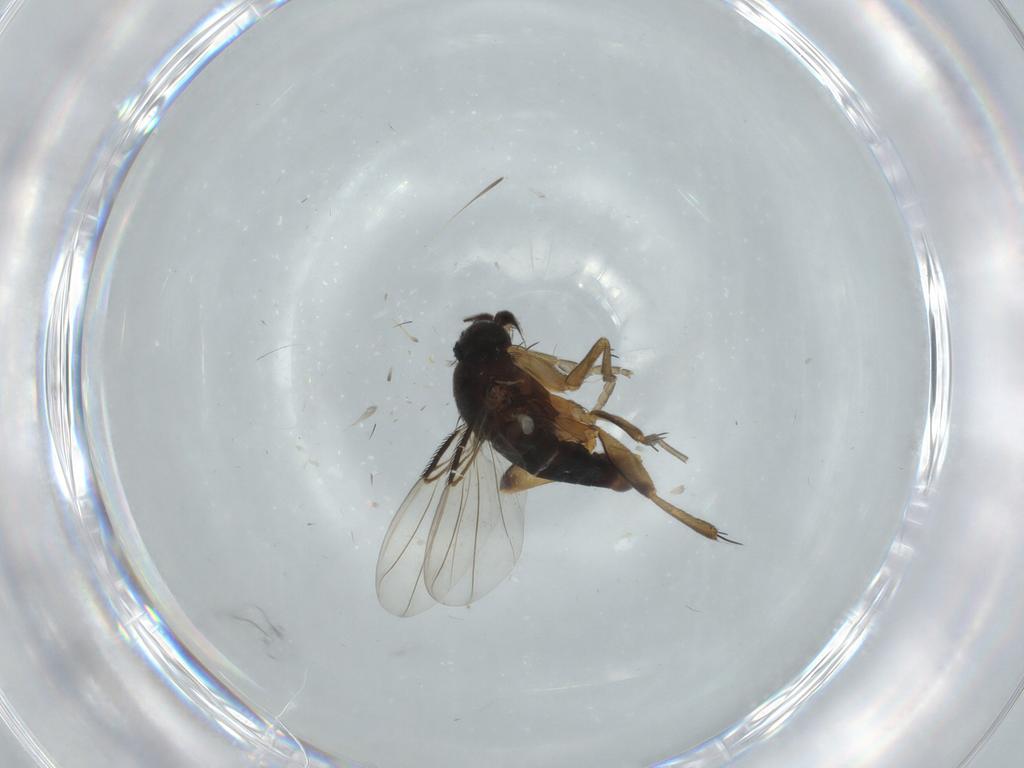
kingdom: Animalia
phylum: Arthropoda
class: Insecta
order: Diptera
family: Phoridae
